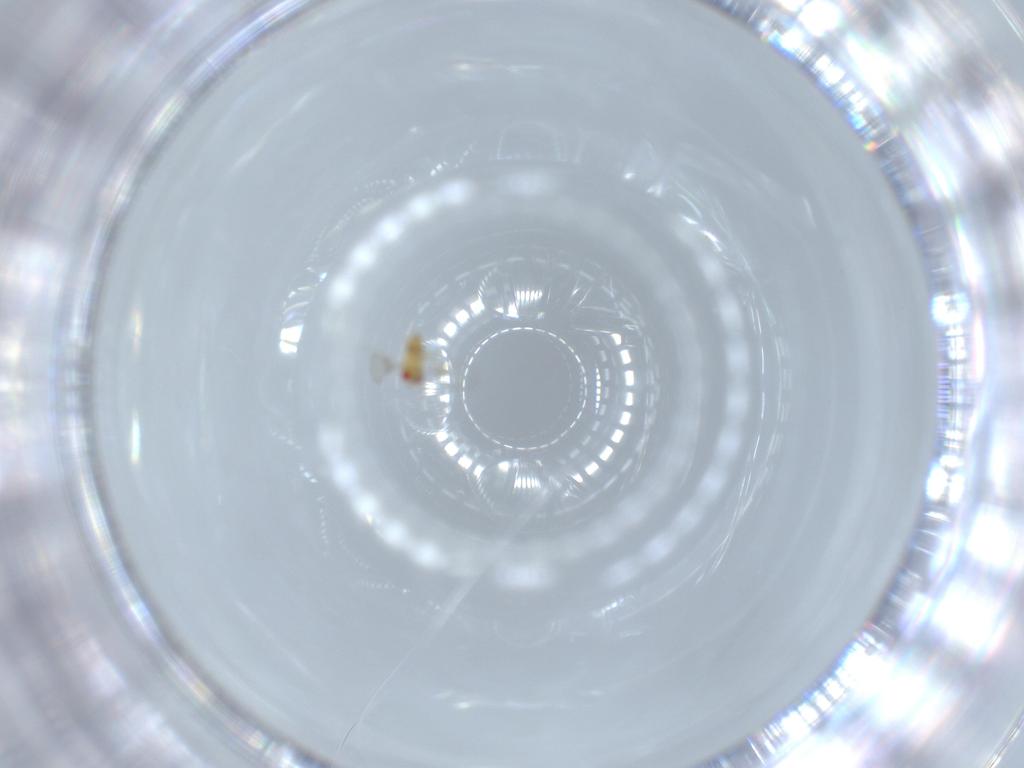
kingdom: Animalia
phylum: Arthropoda
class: Insecta
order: Hymenoptera
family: Trichogrammatidae
